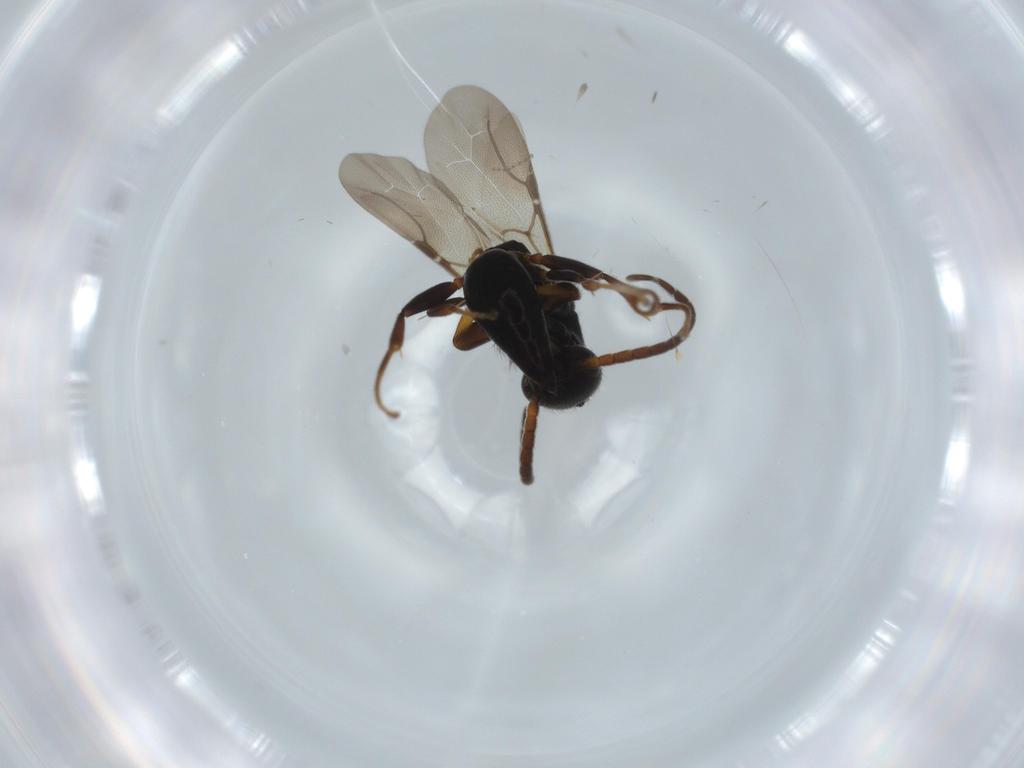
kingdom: Animalia
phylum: Arthropoda
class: Insecta
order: Hymenoptera
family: Bethylidae
